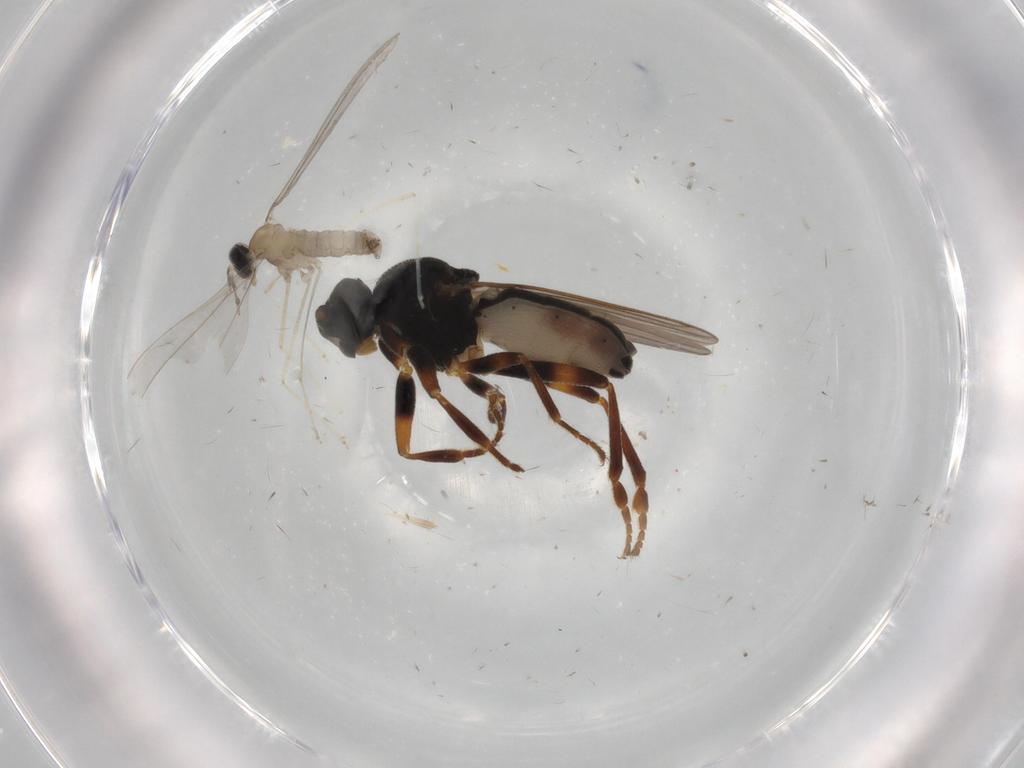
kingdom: Animalia
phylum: Arthropoda
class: Insecta
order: Diptera
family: Sphaeroceridae
